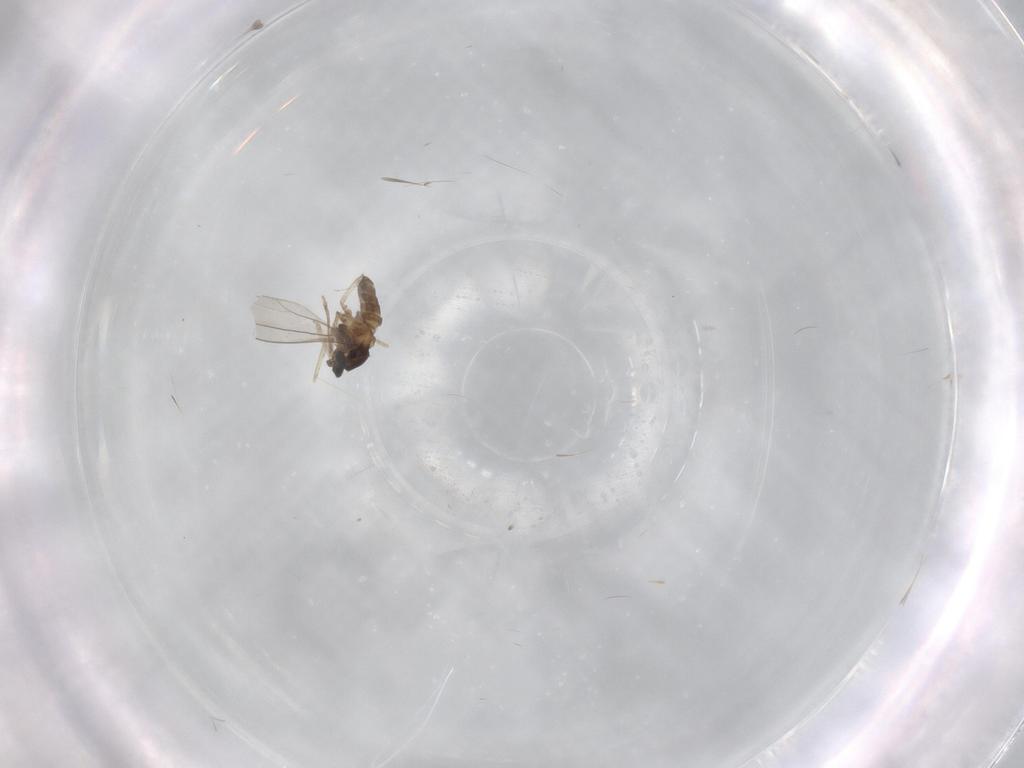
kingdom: Animalia
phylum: Arthropoda
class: Insecta
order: Diptera
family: Cecidomyiidae
